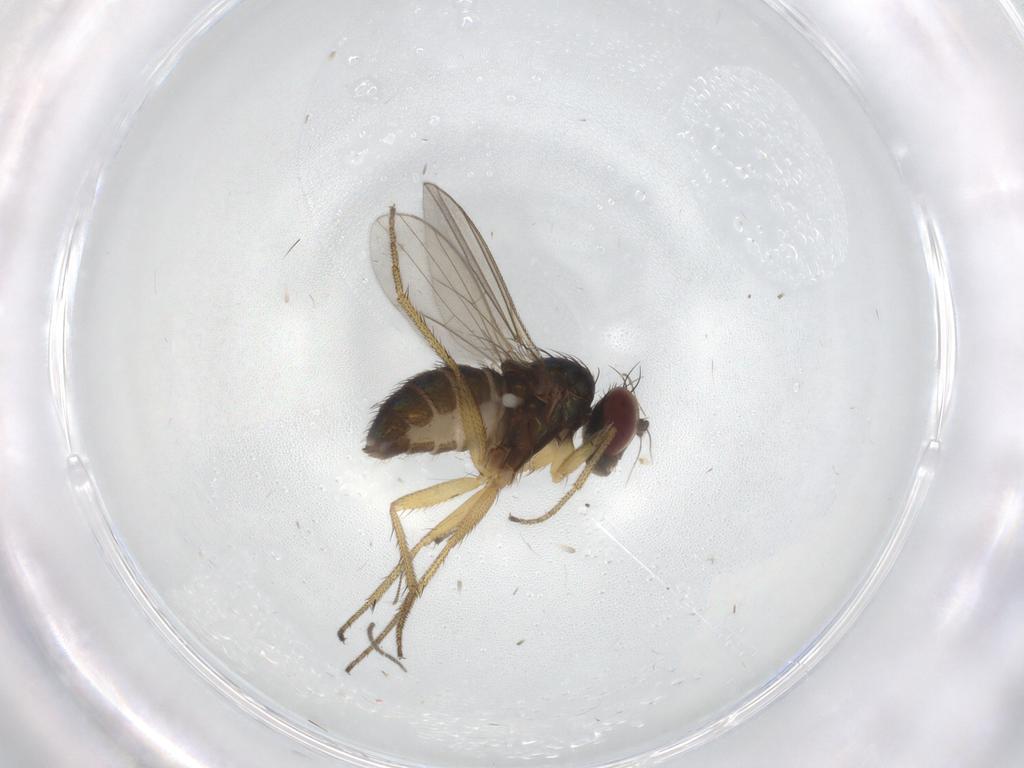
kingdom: Animalia
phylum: Arthropoda
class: Insecta
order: Diptera
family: Sciaridae
